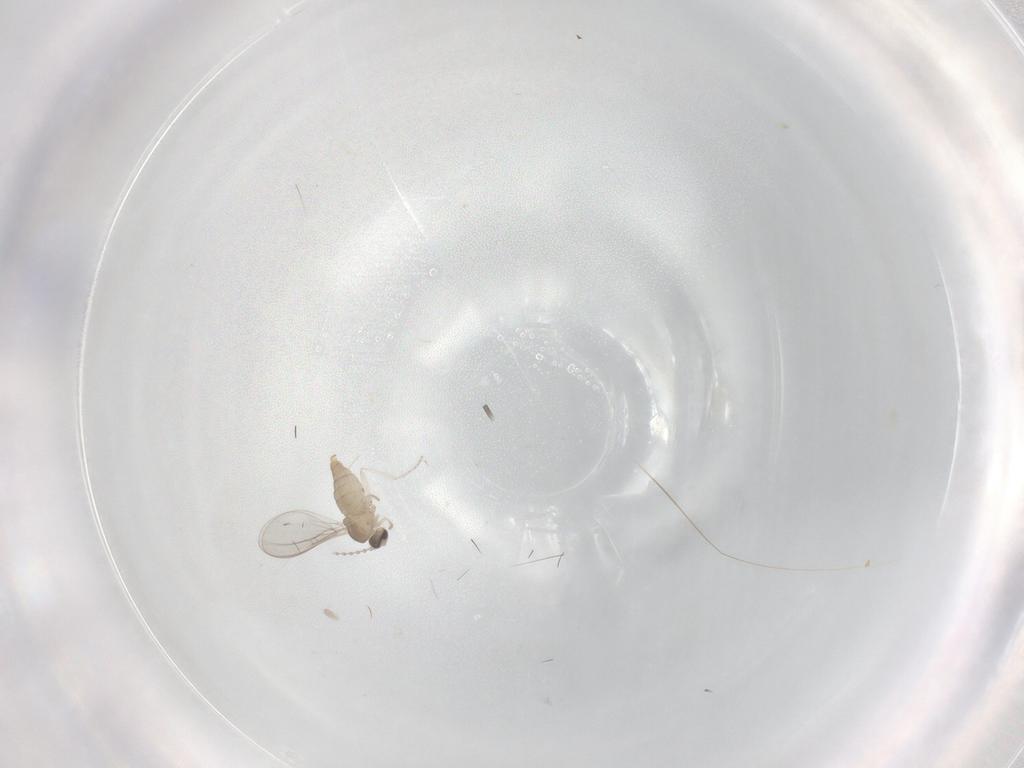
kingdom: Animalia
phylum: Arthropoda
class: Insecta
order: Diptera
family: Cecidomyiidae
